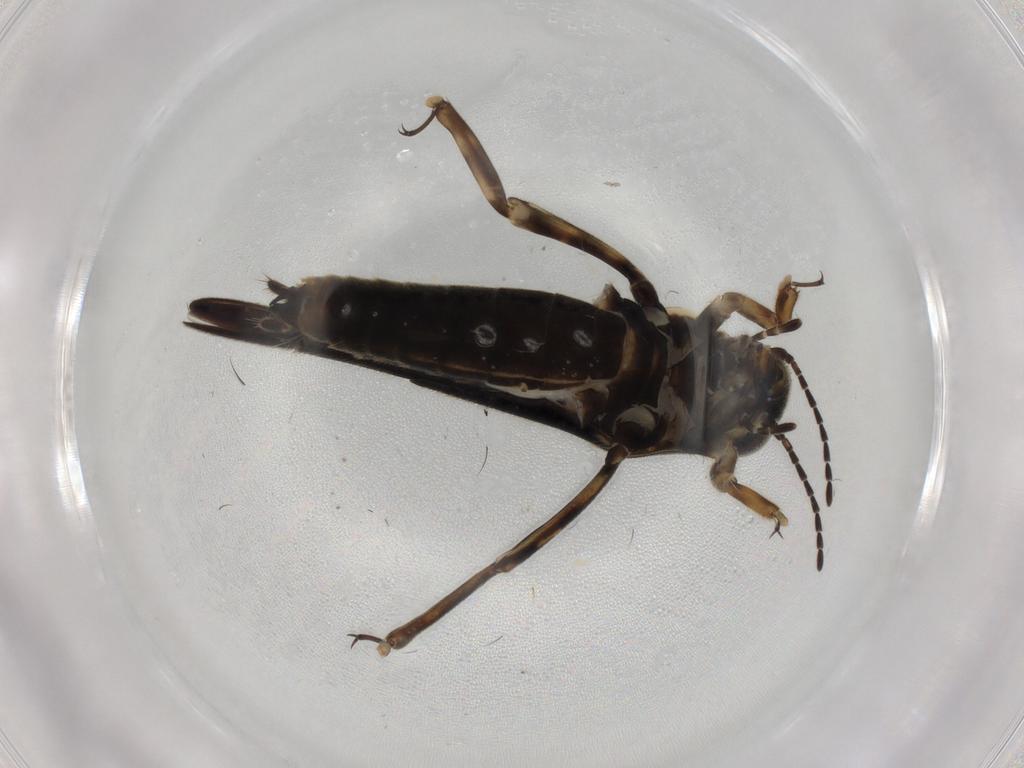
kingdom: Animalia
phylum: Arthropoda
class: Insecta
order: Orthoptera
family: Ripipterygidae
